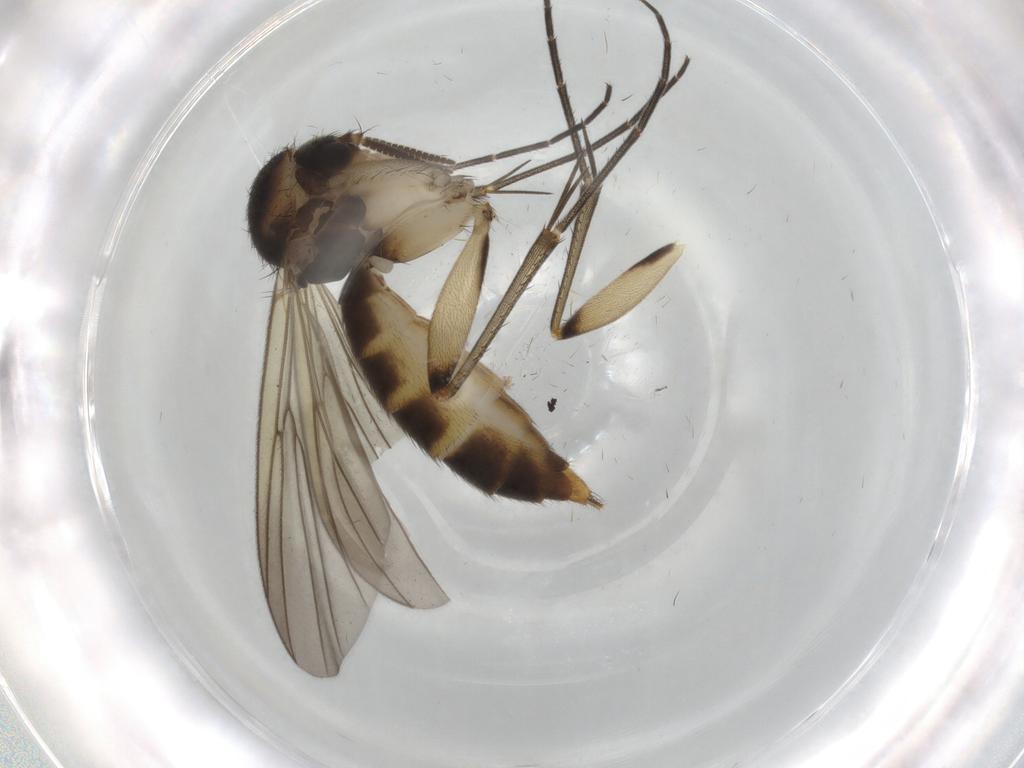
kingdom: Animalia
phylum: Arthropoda
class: Insecta
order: Diptera
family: Mycetophilidae
